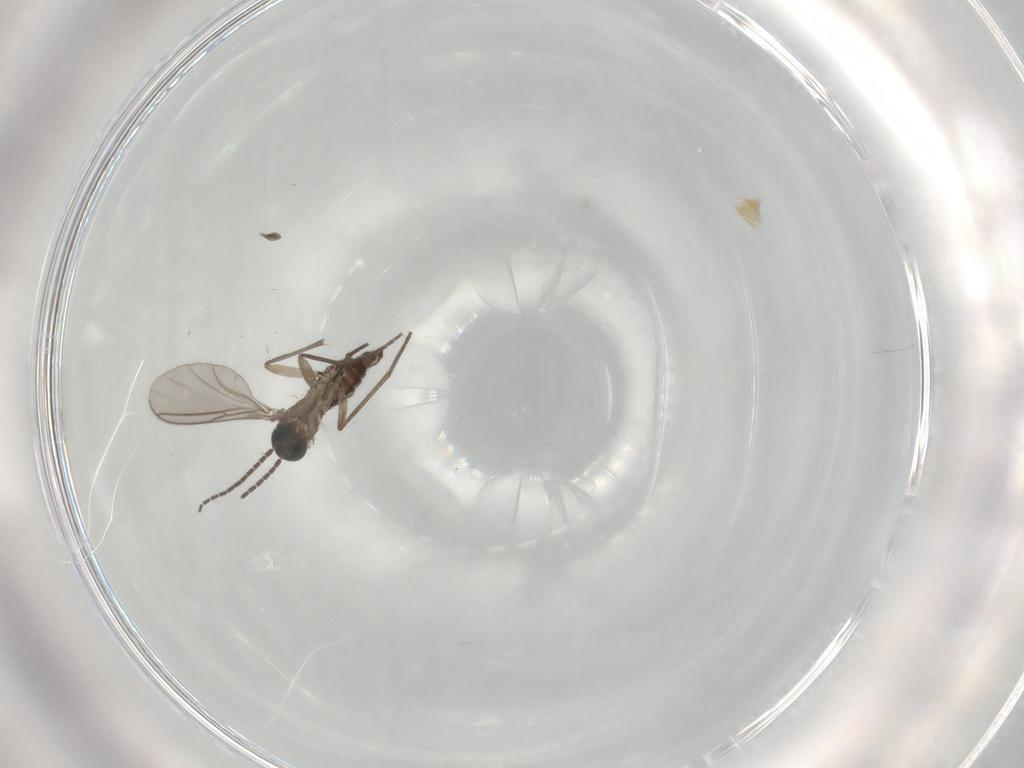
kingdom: Animalia
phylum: Arthropoda
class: Insecta
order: Diptera
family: Sciaridae
